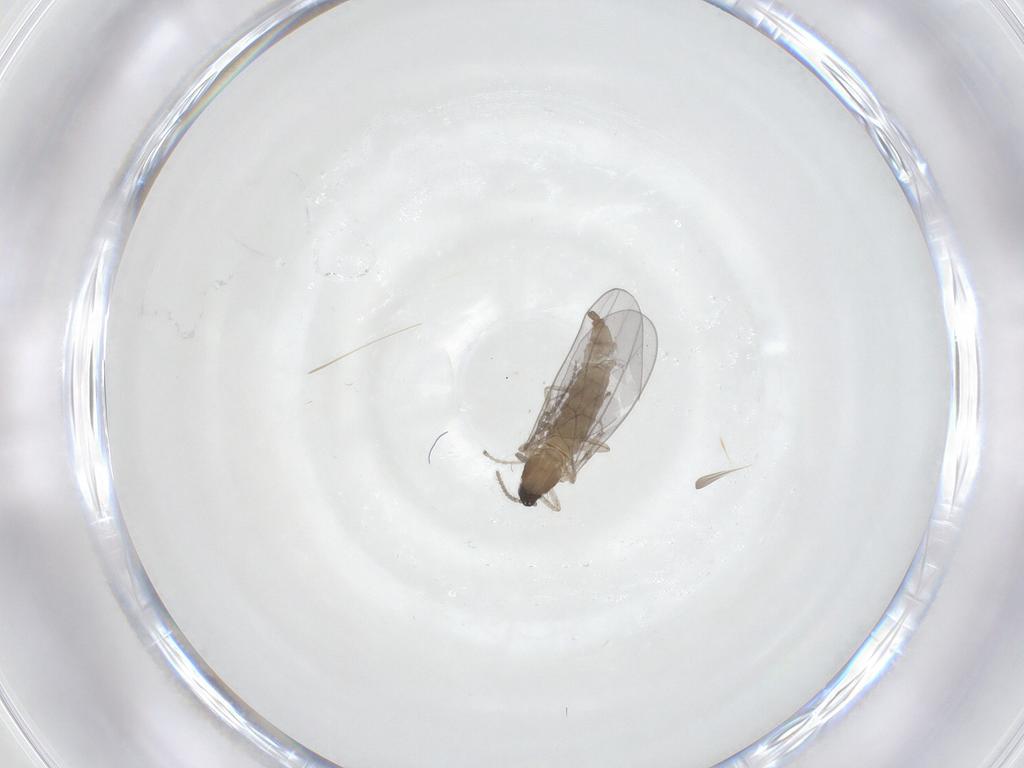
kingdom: Animalia
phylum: Arthropoda
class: Insecta
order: Diptera
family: Cecidomyiidae
